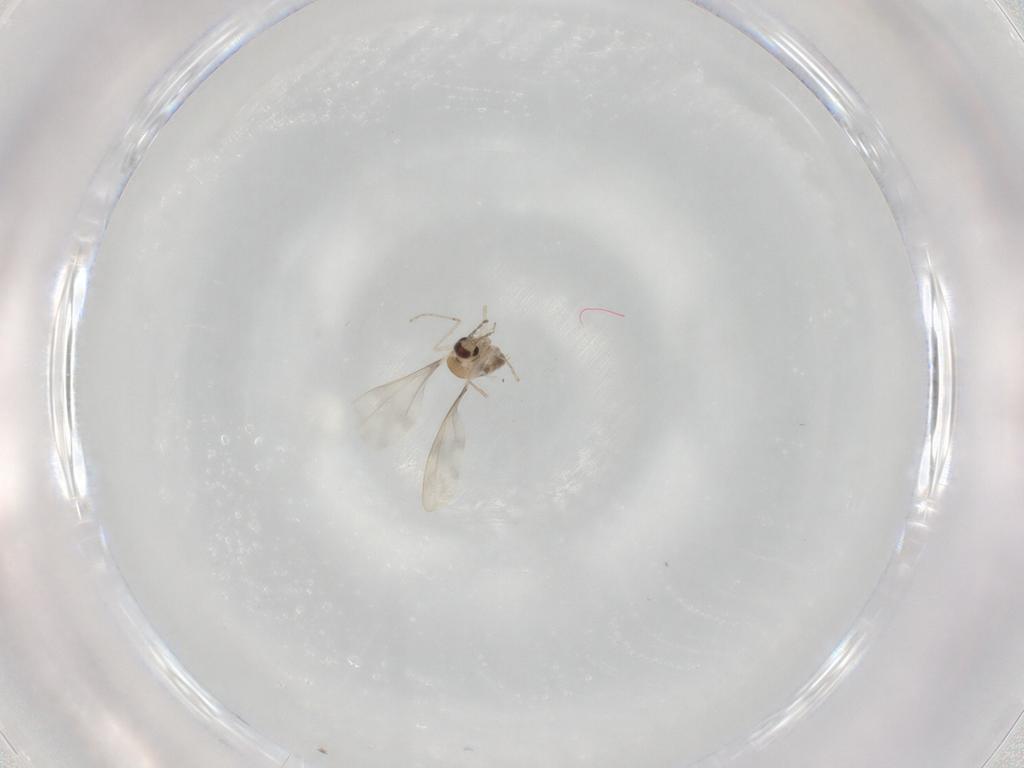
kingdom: Animalia
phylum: Arthropoda
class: Insecta
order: Diptera
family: Cecidomyiidae
